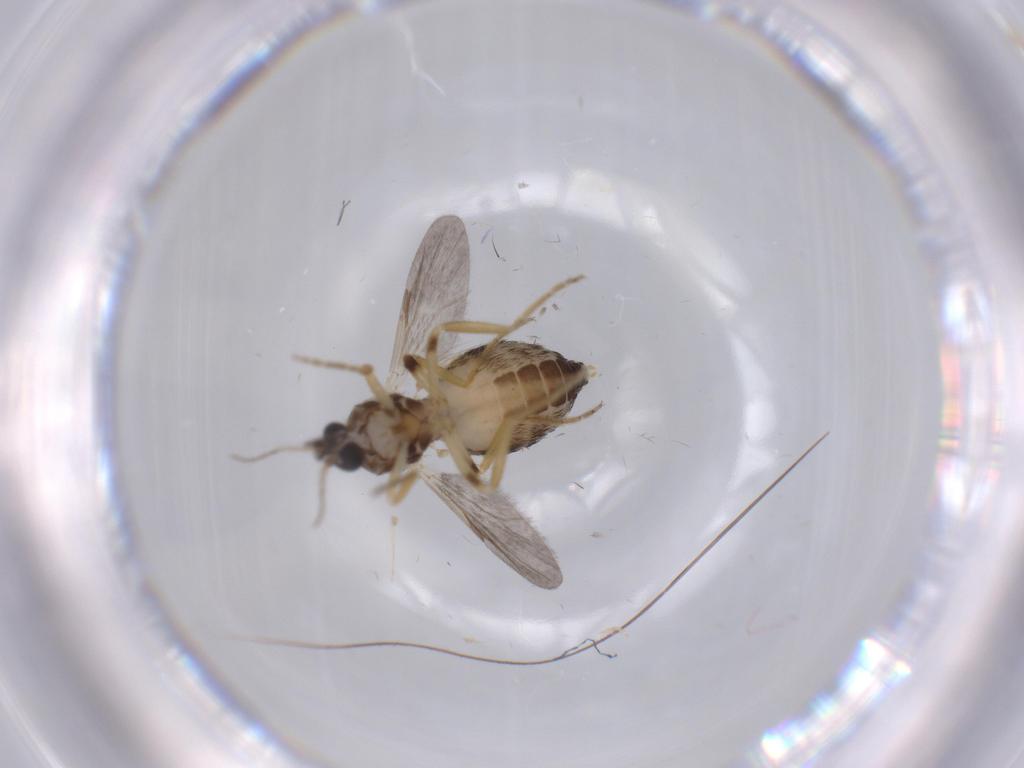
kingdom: Animalia
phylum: Arthropoda
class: Insecta
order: Diptera
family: Ceratopogonidae
